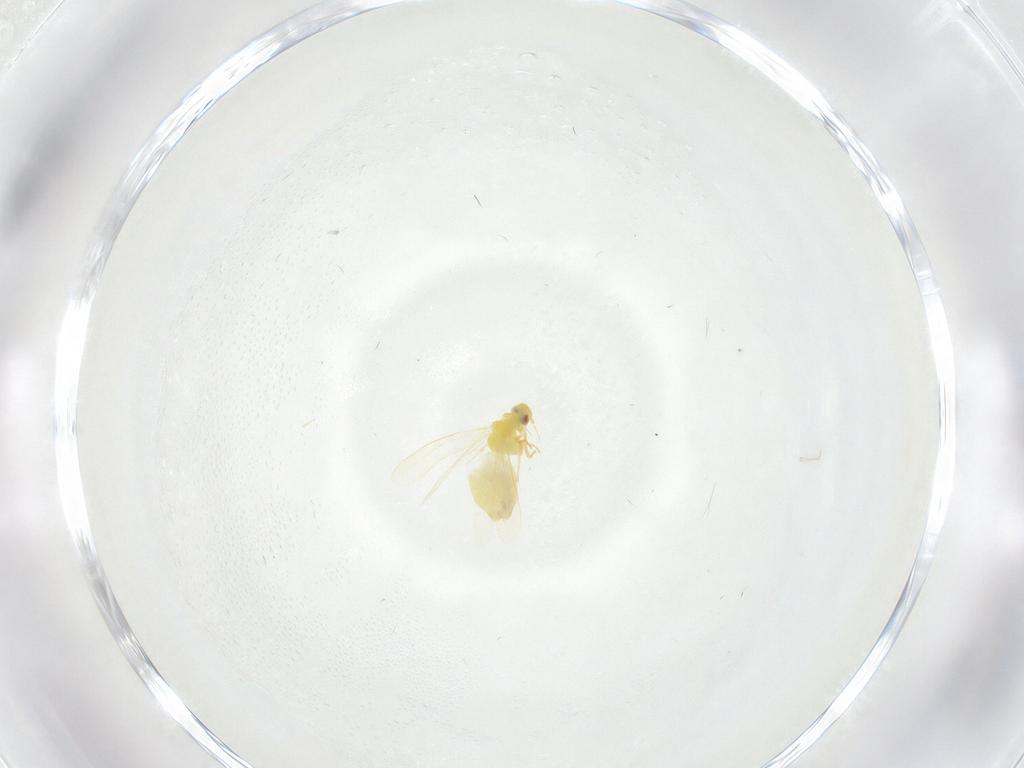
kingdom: Animalia
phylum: Arthropoda
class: Insecta
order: Hemiptera
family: Aleyrodidae
